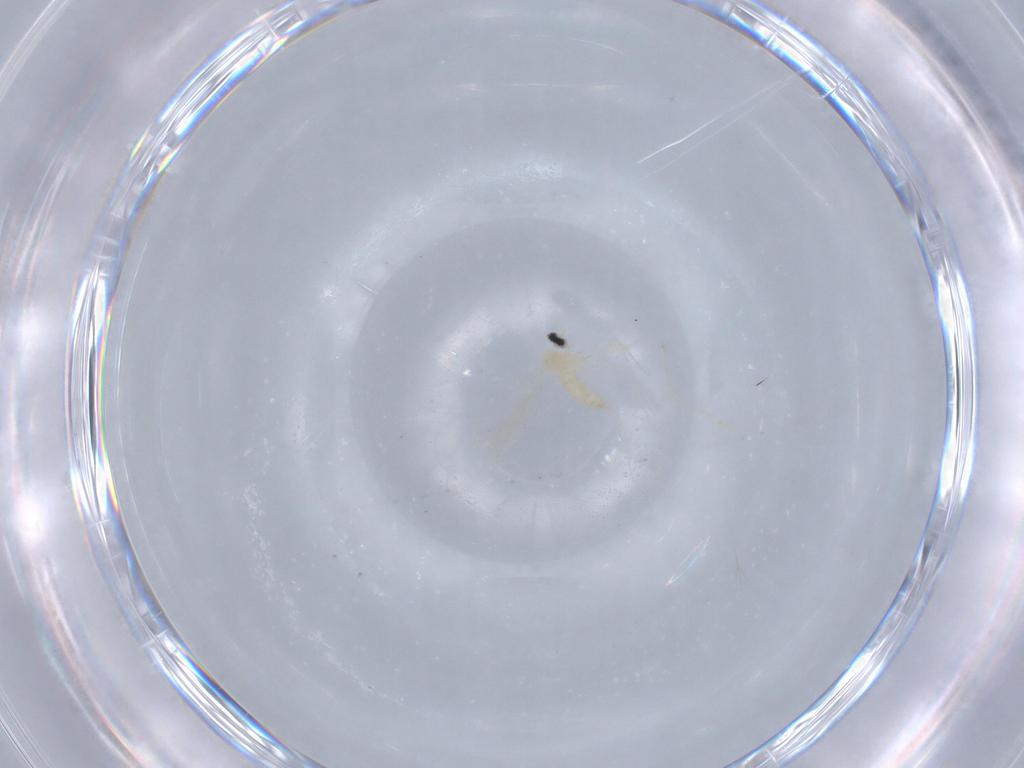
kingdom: Animalia
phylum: Arthropoda
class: Insecta
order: Diptera
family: Cecidomyiidae
